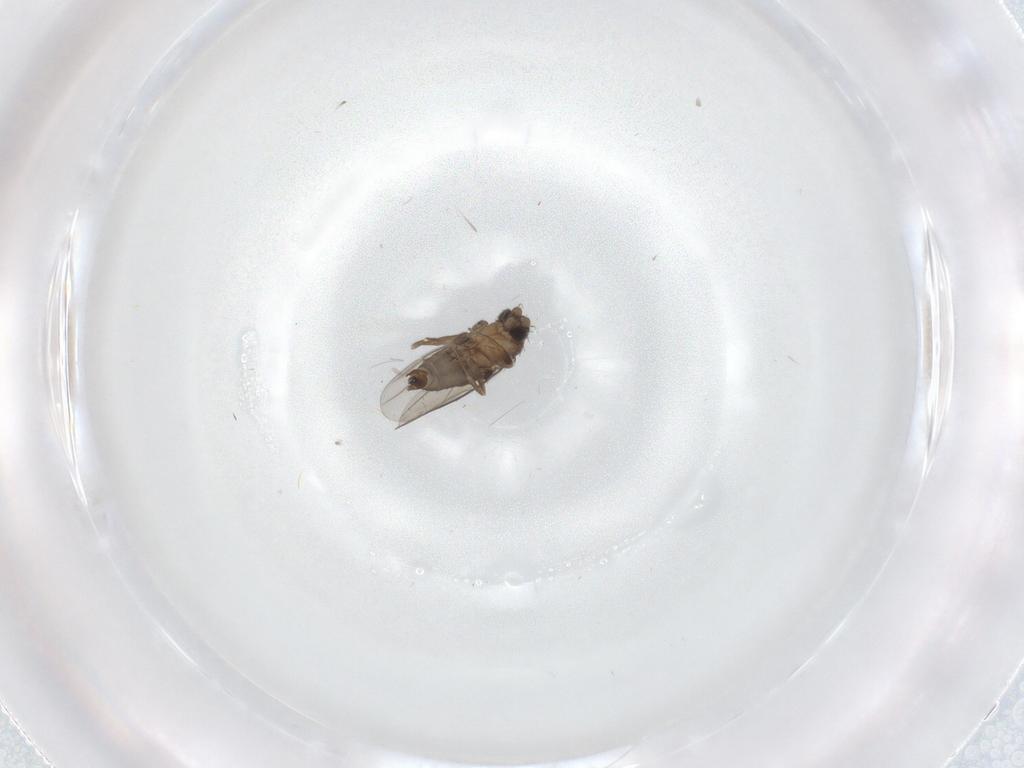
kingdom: Animalia
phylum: Arthropoda
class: Insecta
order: Diptera
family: Phoridae
